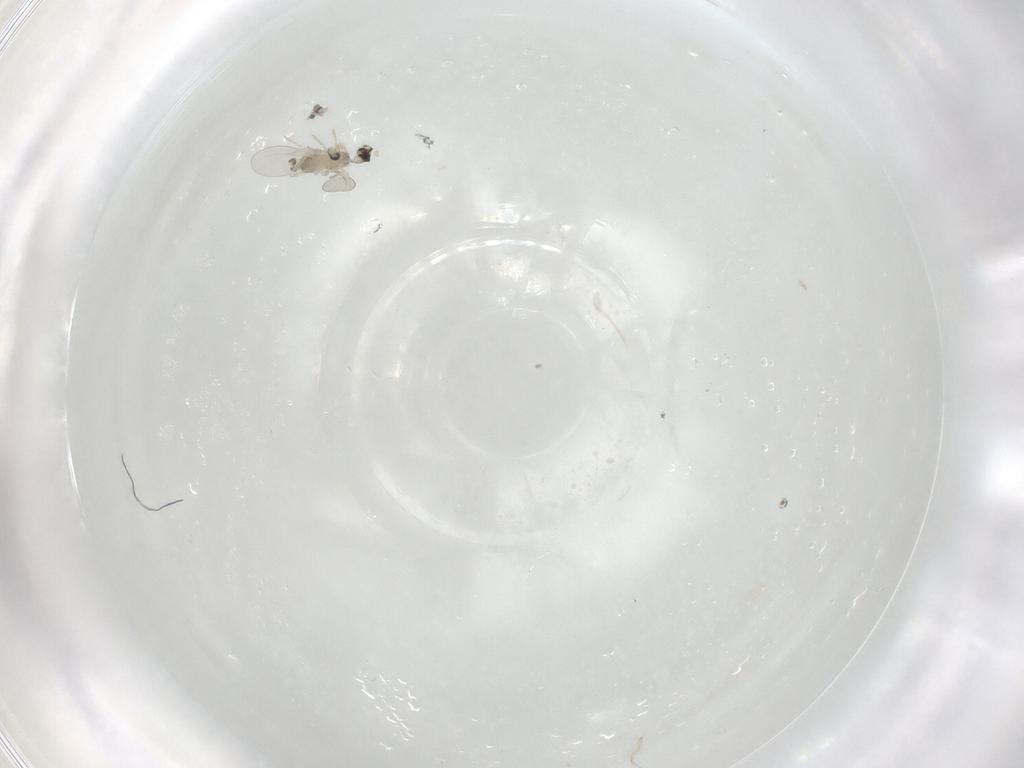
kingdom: Animalia
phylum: Arthropoda
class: Insecta
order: Diptera
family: Cecidomyiidae
